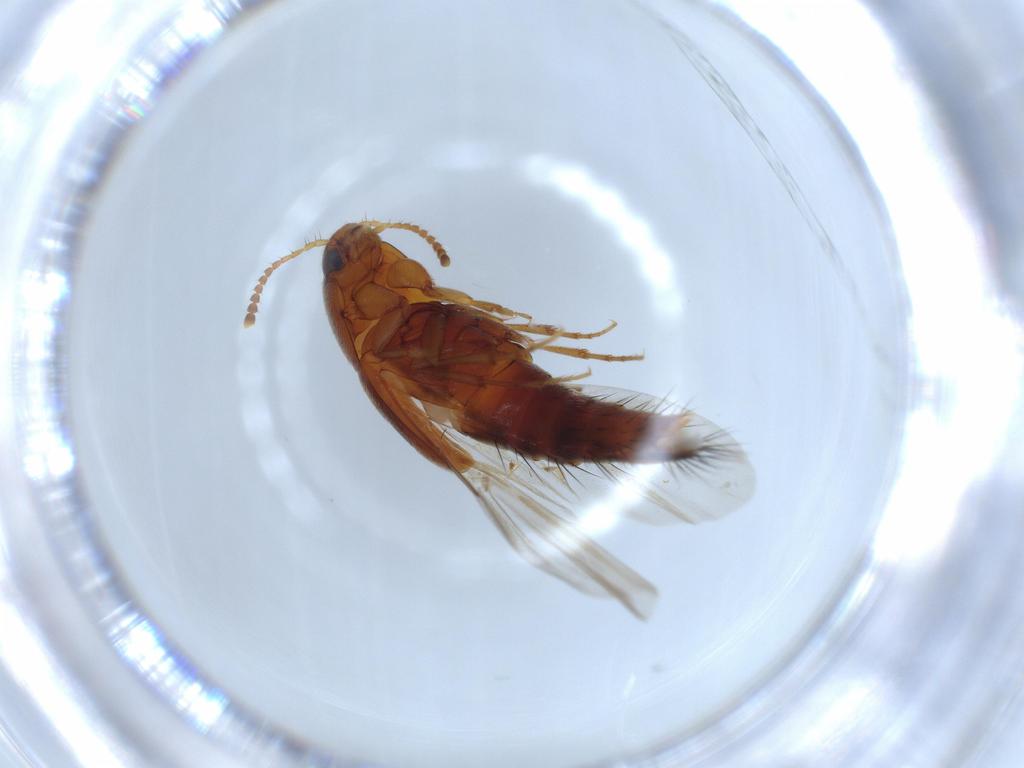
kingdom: Animalia
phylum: Arthropoda
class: Insecta
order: Coleoptera
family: Staphylinidae
